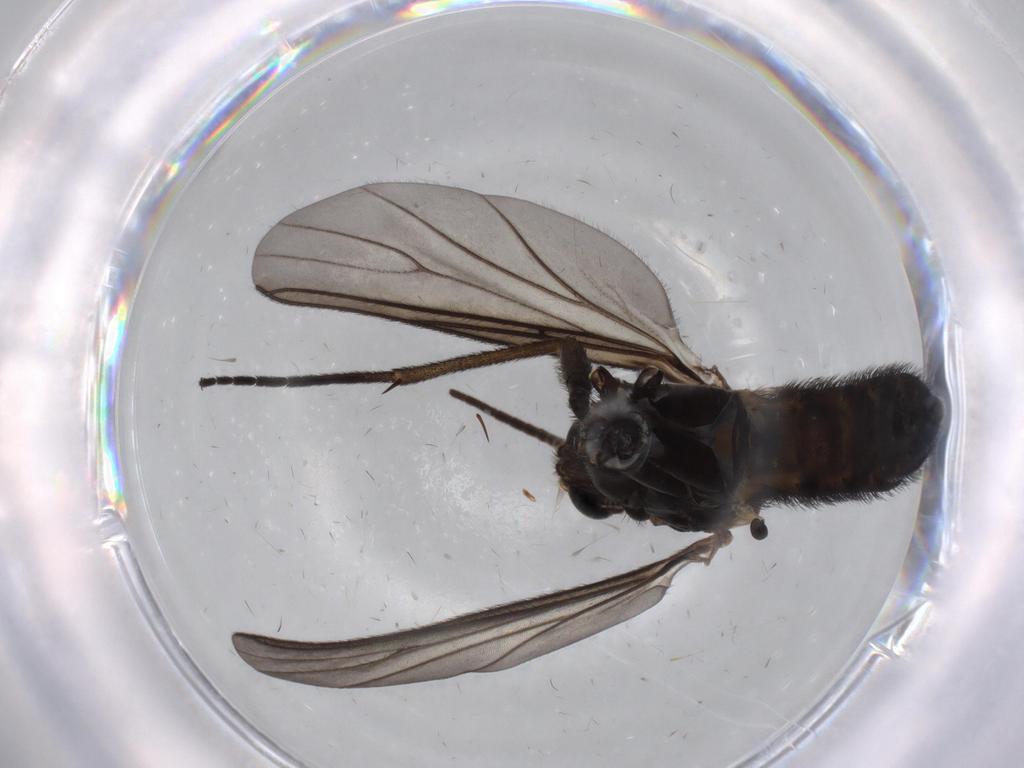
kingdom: Animalia
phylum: Arthropoda
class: Insecta
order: Diptera
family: Sciaridae
